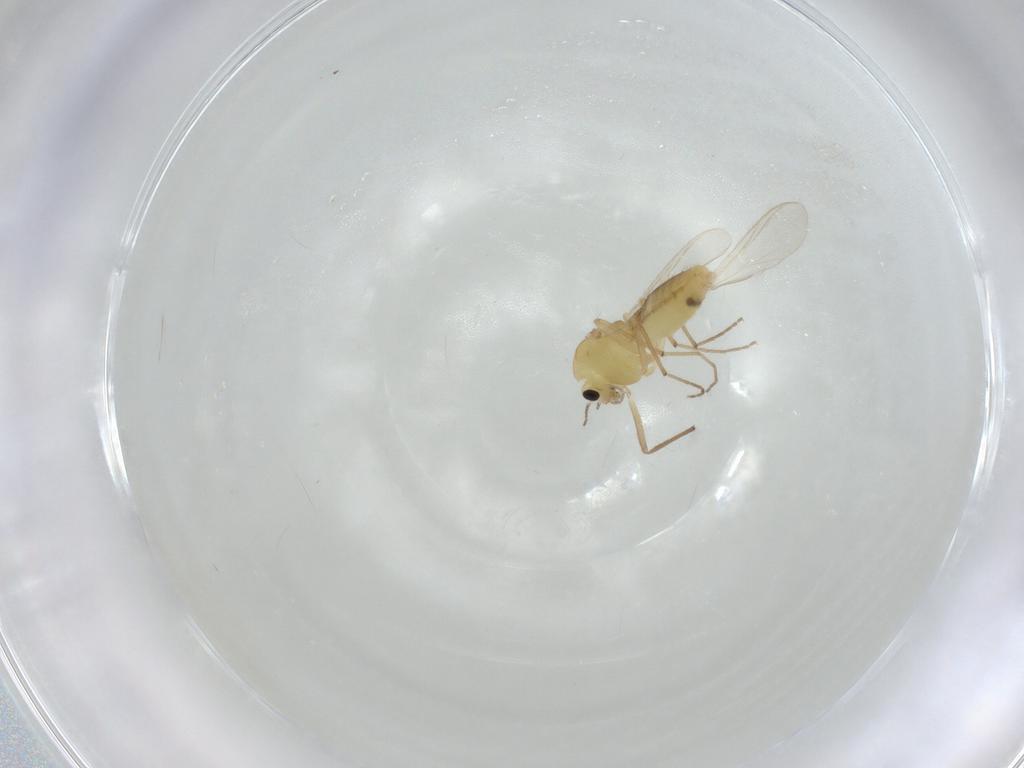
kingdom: Animalia
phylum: Arthropoda
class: Insecta
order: Diptera
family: Chironomidae
